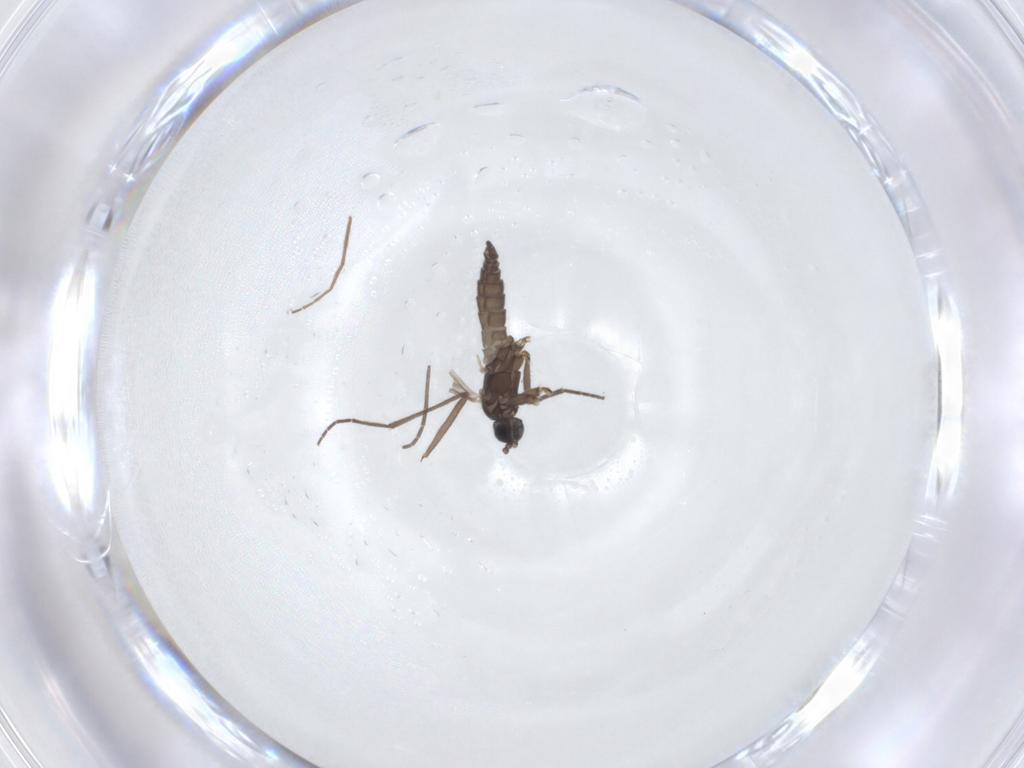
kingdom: Animalia
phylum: Arthropoda
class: Insecta
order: Diptera
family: Sciaridae
